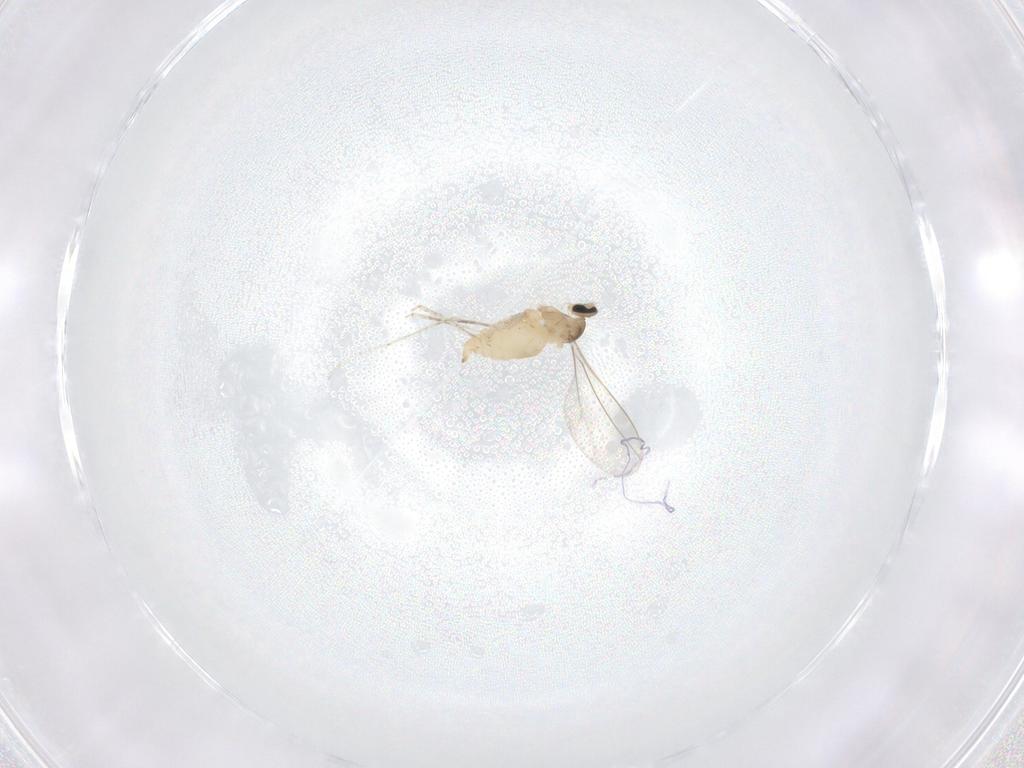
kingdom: Animalia
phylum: Arthropoda
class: Insecta
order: Diptera
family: Cecidomyiidae
